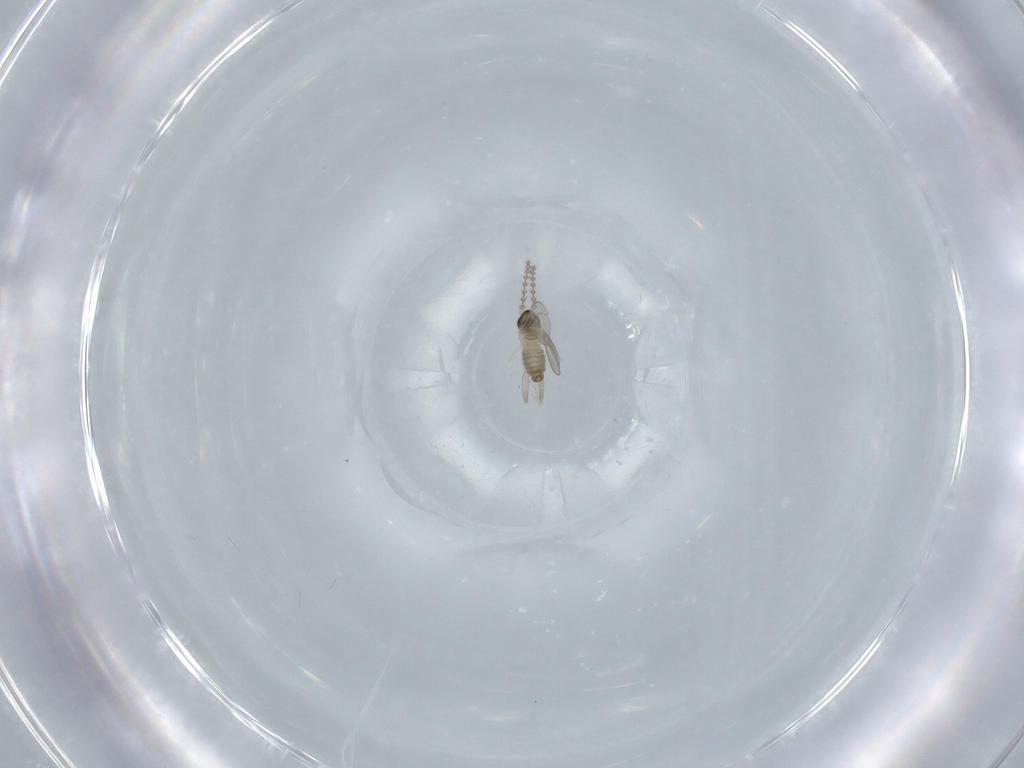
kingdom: Animalia
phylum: Arthropoda
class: Insecta
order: Diptera
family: Cecidomyiidae
